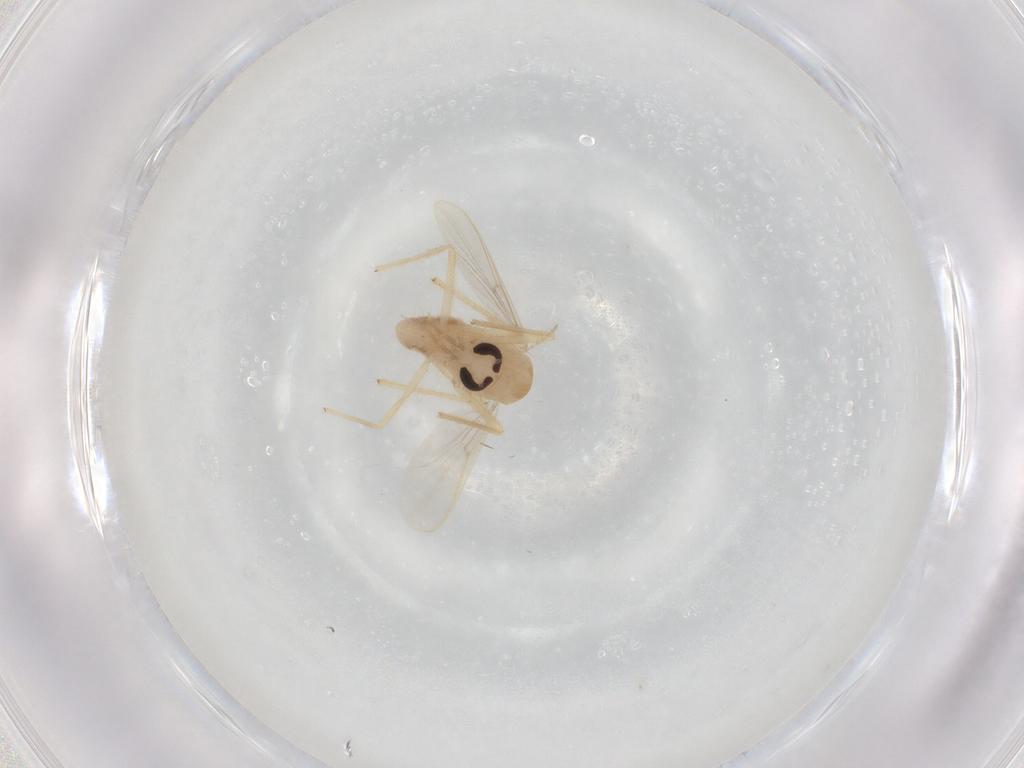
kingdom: Animalia
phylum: Arthropoda
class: Insecta
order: Diptera
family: Chironomidae
